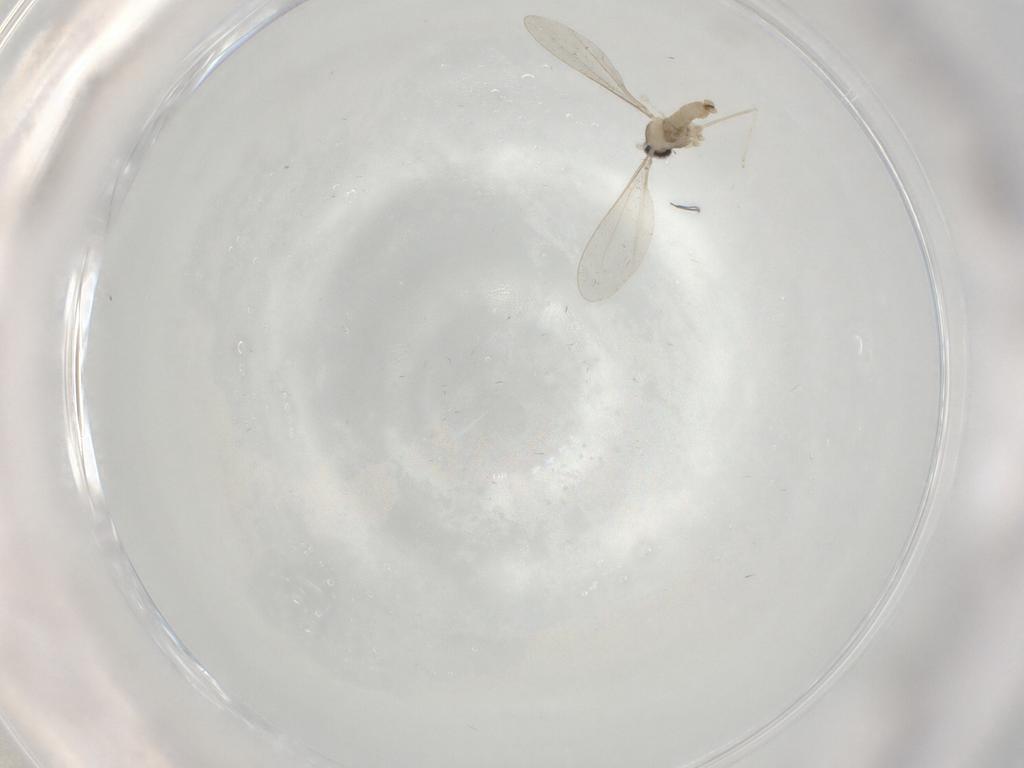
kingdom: Animalia
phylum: Arthropoda
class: Insecta
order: Diptera
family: Cecidomyiidae
